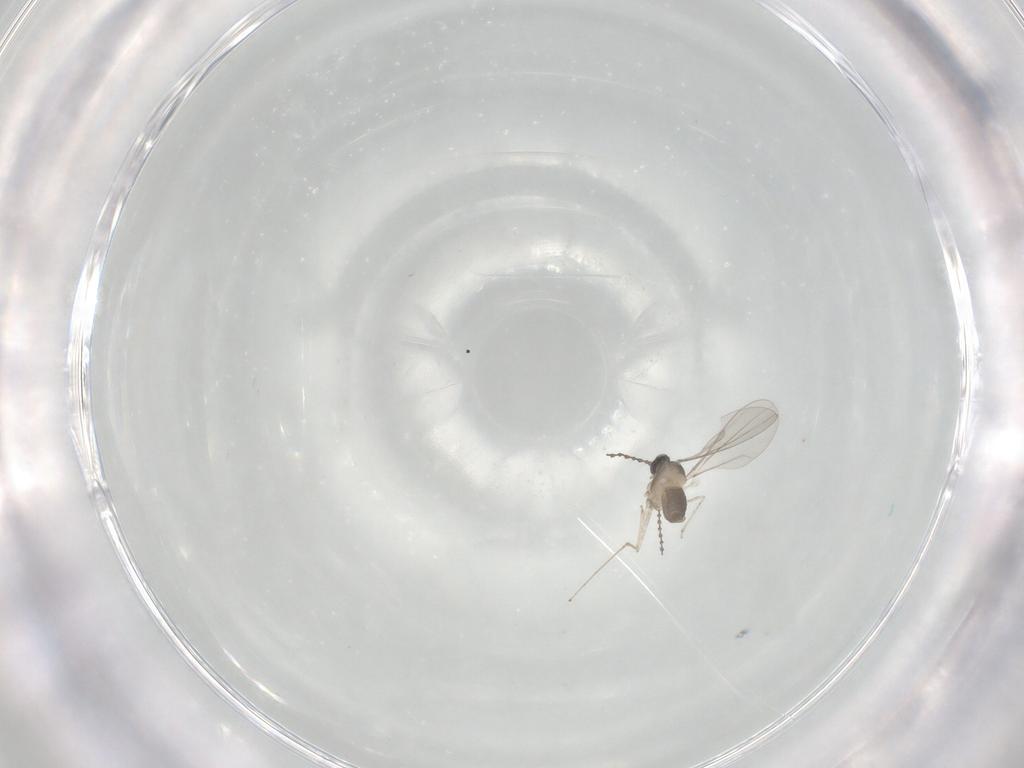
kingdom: Animalia
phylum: Arthropoda
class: Insecta
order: Diptera
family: Cecidomyiidae
